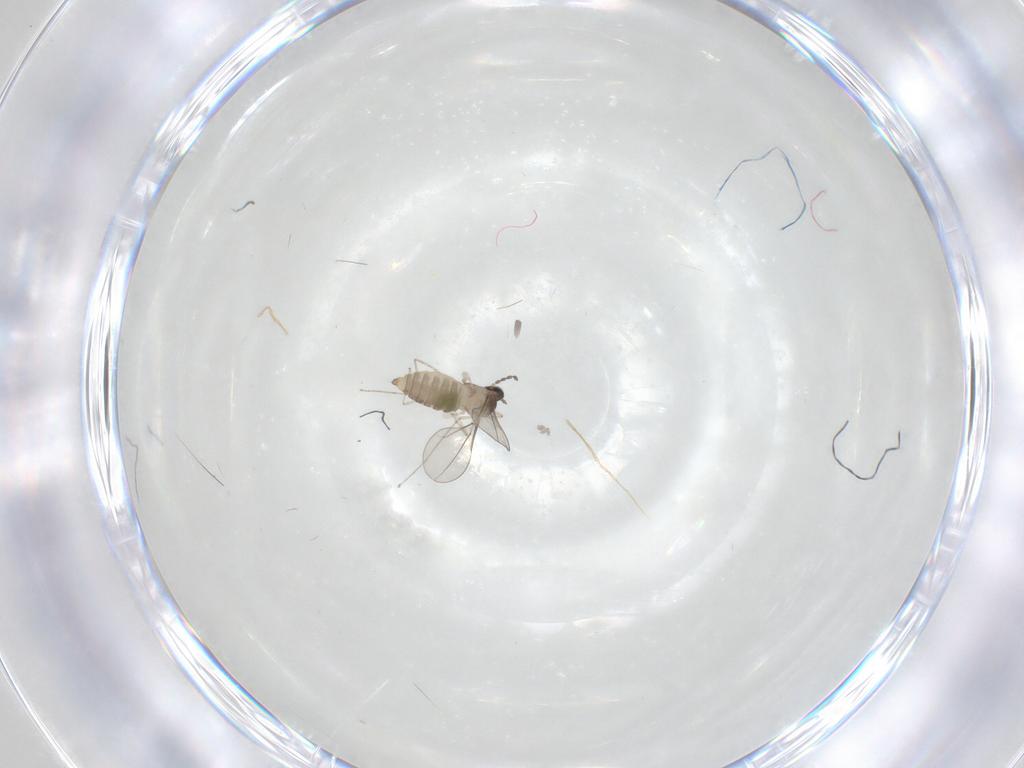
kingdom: Animalia
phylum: Arthropoda
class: Insecta
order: Diptera
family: Cecidomyiidae
